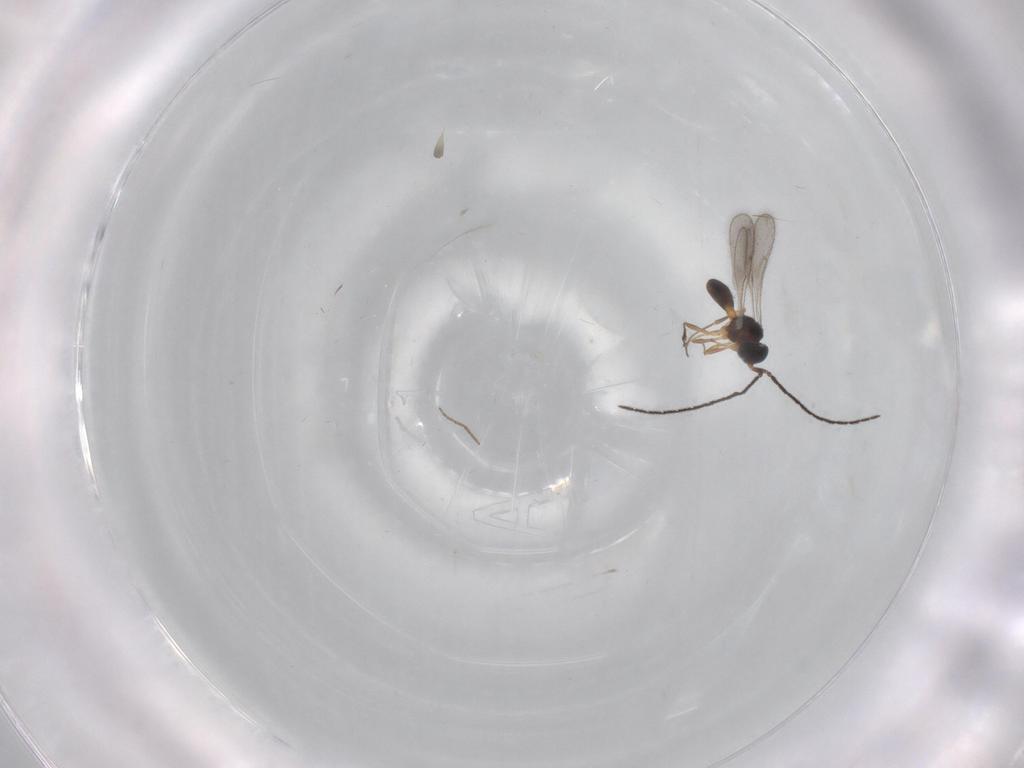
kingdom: Animalia
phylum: Arthropoda
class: Insecta
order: Hymenoptera
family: Scelionidae
